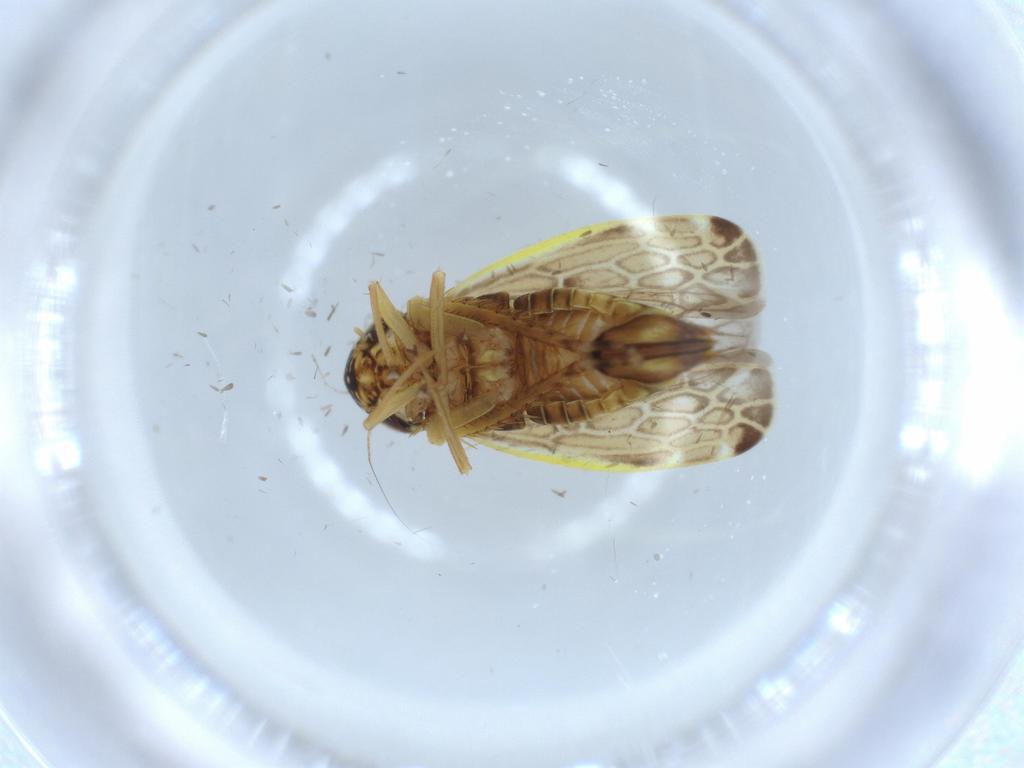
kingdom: Animalia
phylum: Arthropoda
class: Insecta
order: Hemiptera
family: Cicadellidae
